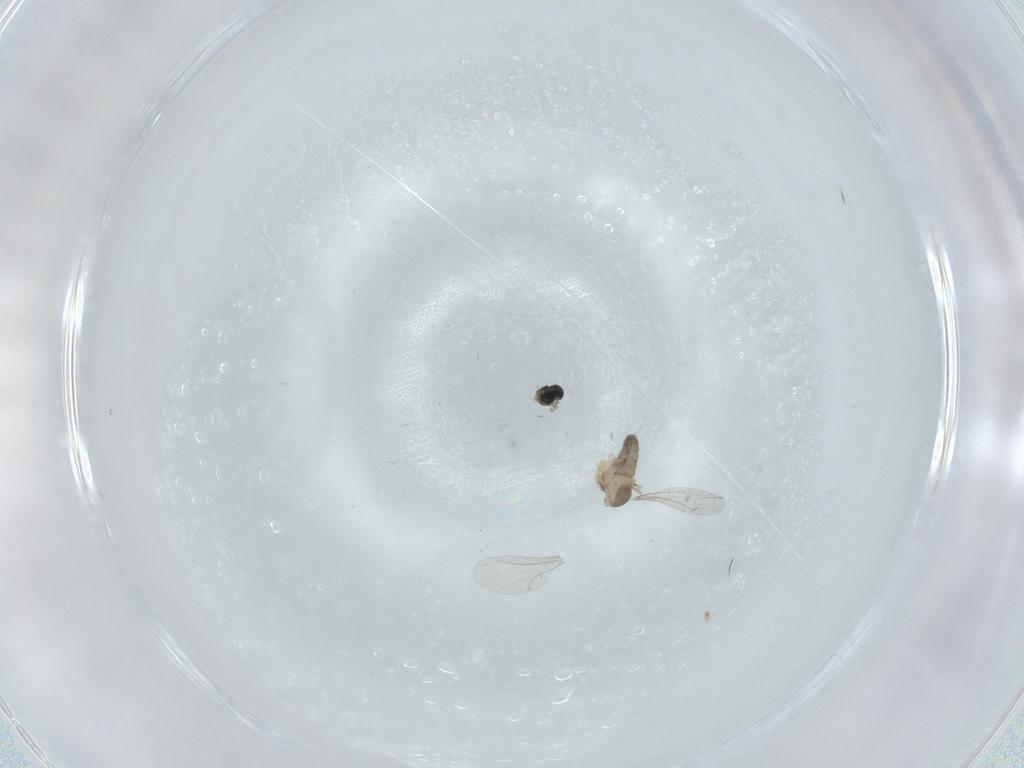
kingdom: Animalia
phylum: Arthropoda
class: Insecta
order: Diptera
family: Cecidomyiidae
